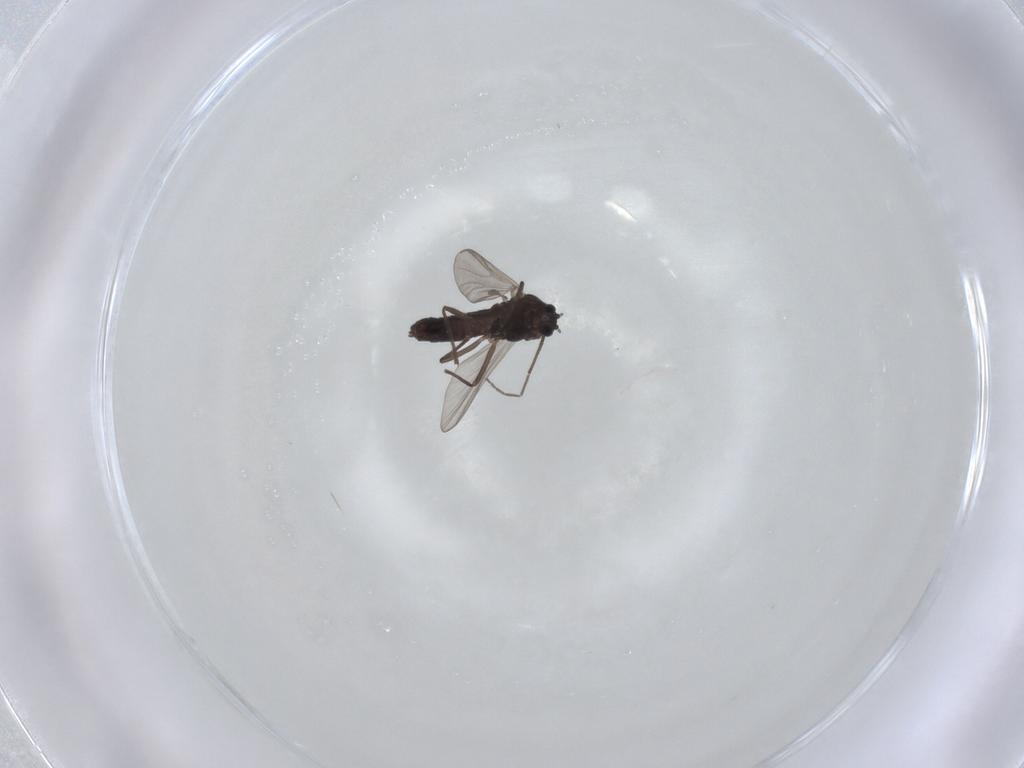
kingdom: Animalia
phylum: Arthropoda
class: Insecta
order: Diptera
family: Chironomidae
